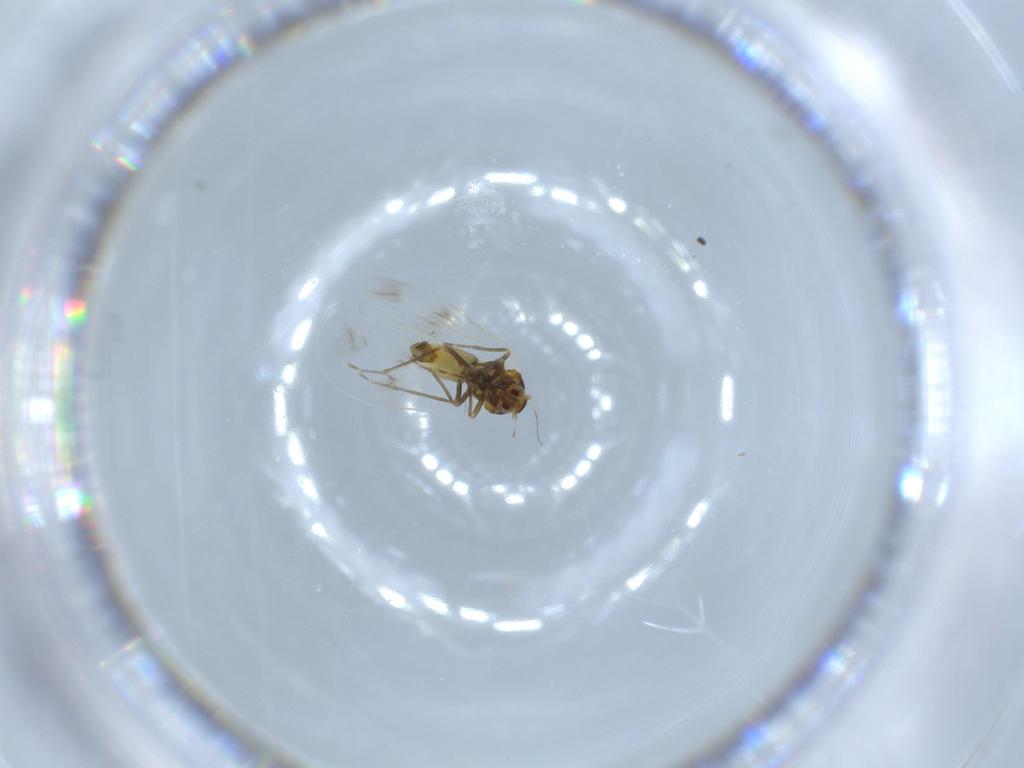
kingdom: Animalia
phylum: Arthropoda
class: Insecta
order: Hemiptera
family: Aleyrodidae
